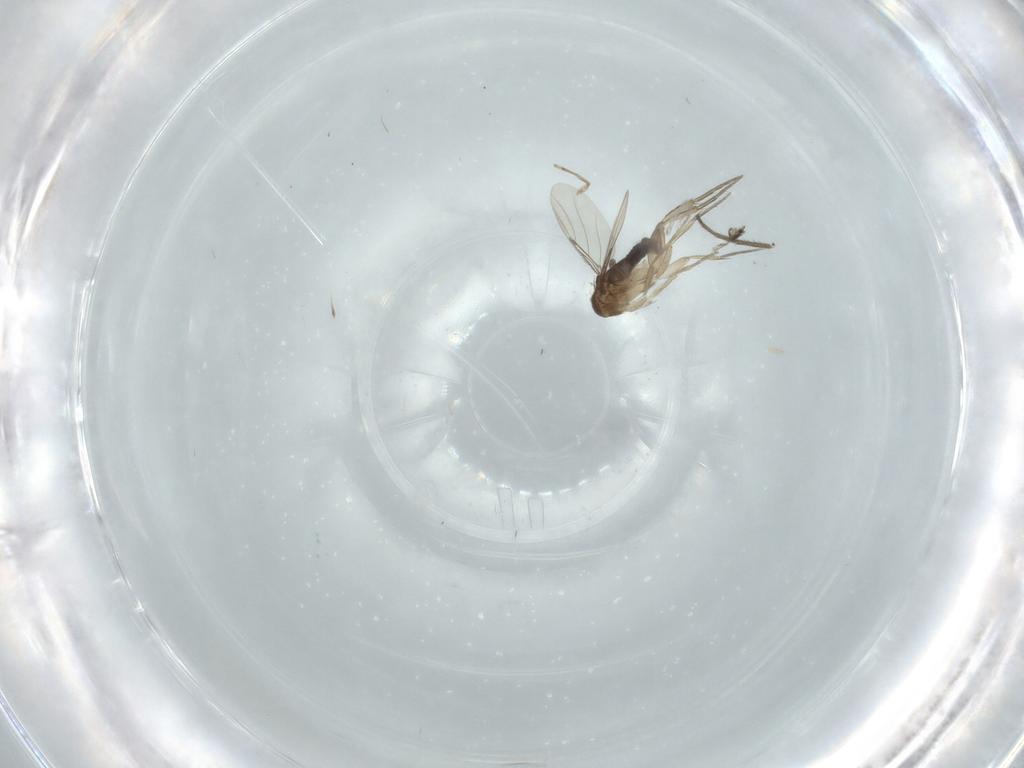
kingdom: Animalia
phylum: Arthropoda
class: Insecta
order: Diptera
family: Phoridae
